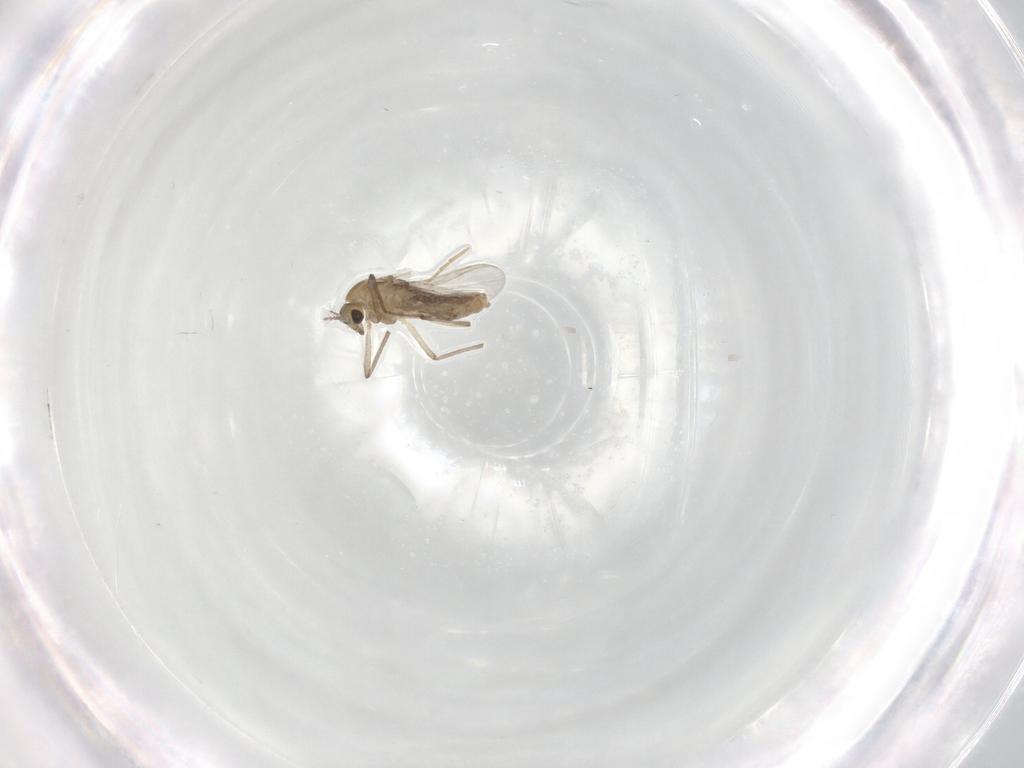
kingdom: Animalia
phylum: Arthropoda
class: Insecta
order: Diptera
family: Chironomidae
